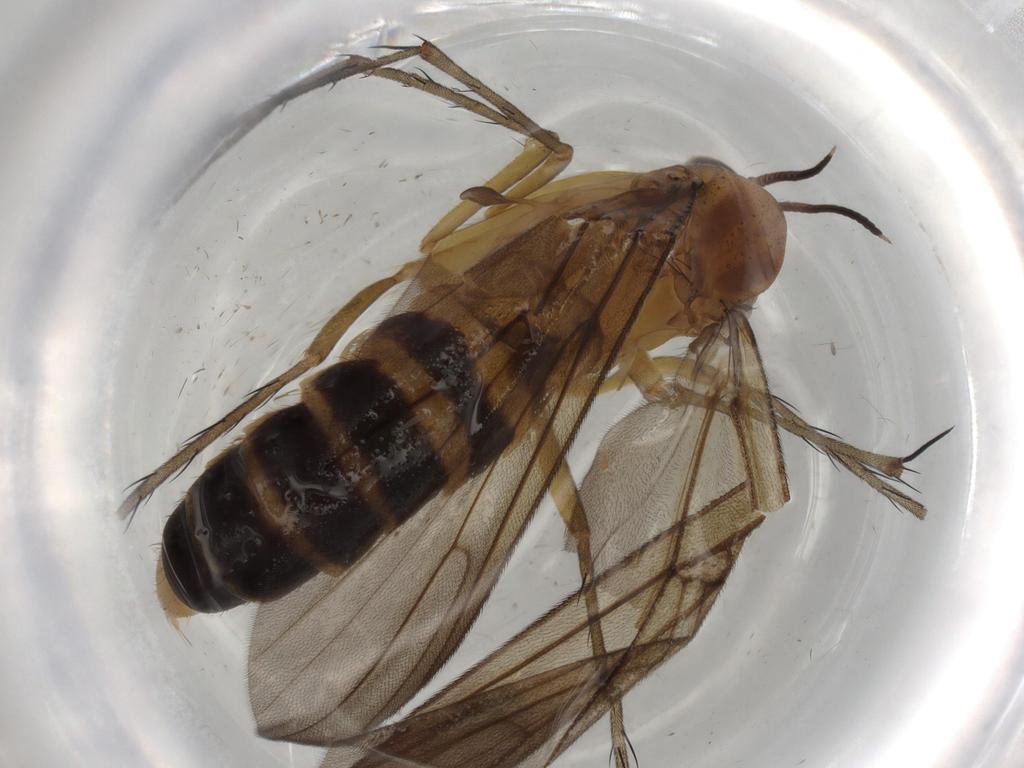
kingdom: Animalia
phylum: Arthropoda
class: Insecta
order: Diptera
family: Psychodidae
